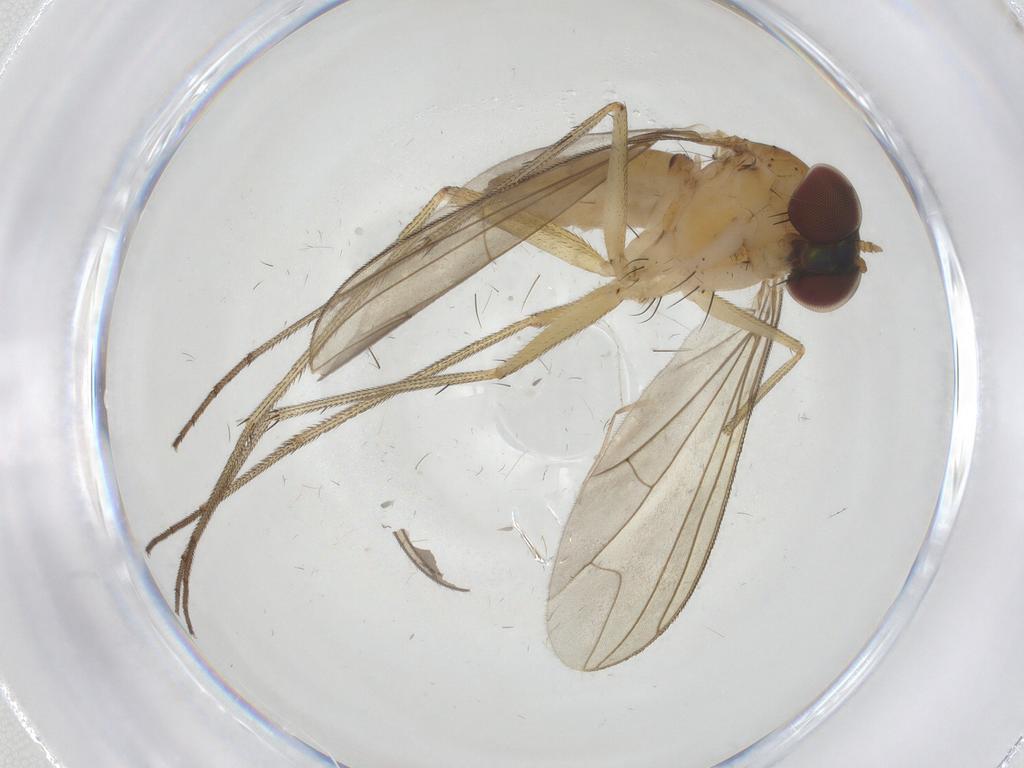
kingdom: Animalia
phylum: Arthropoda
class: Insecta
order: Diptera
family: Dolichopodidae
